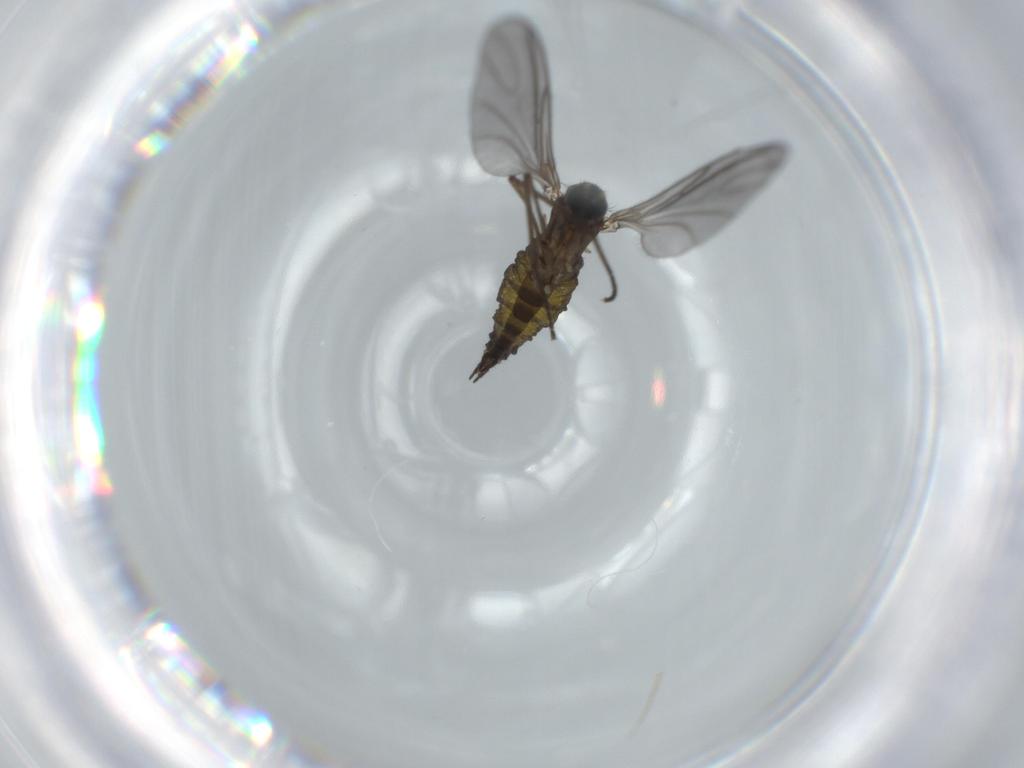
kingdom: Animalia
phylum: Arthropoda
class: Insecta
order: Diptera
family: Sciaridae
